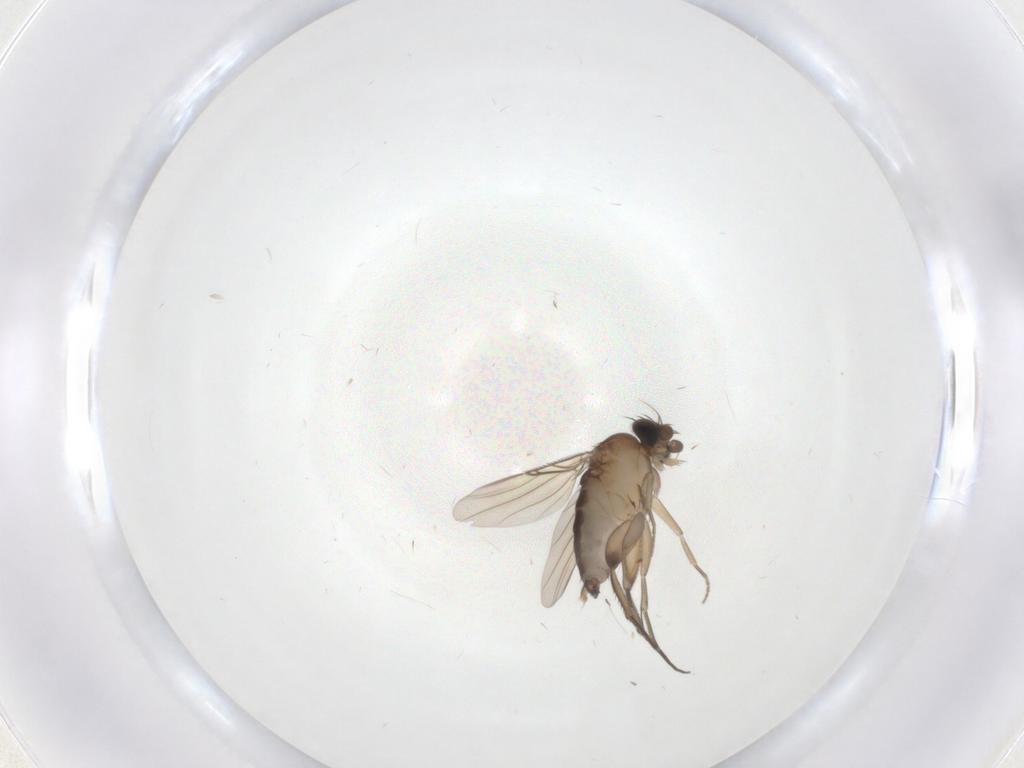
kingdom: Animalia
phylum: Arthropoda
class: Insecta
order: Diptera
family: Phoridae
